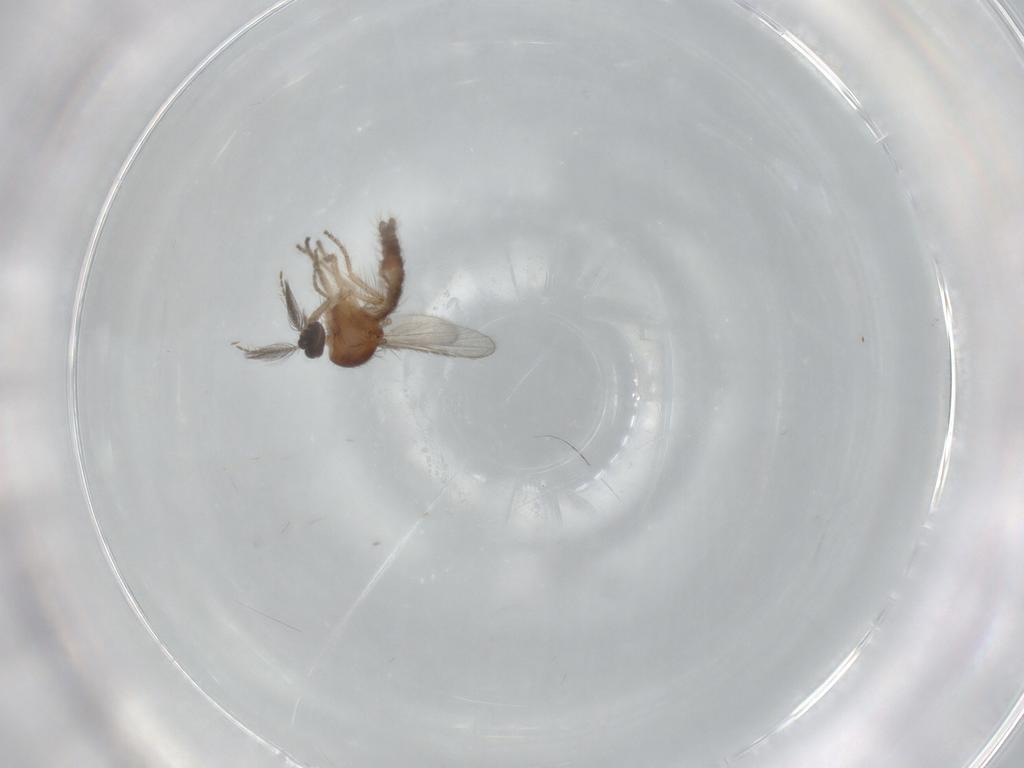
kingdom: Animalia
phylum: Arthropoda
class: Insecta
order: Diptera
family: Ceratopogonidae
